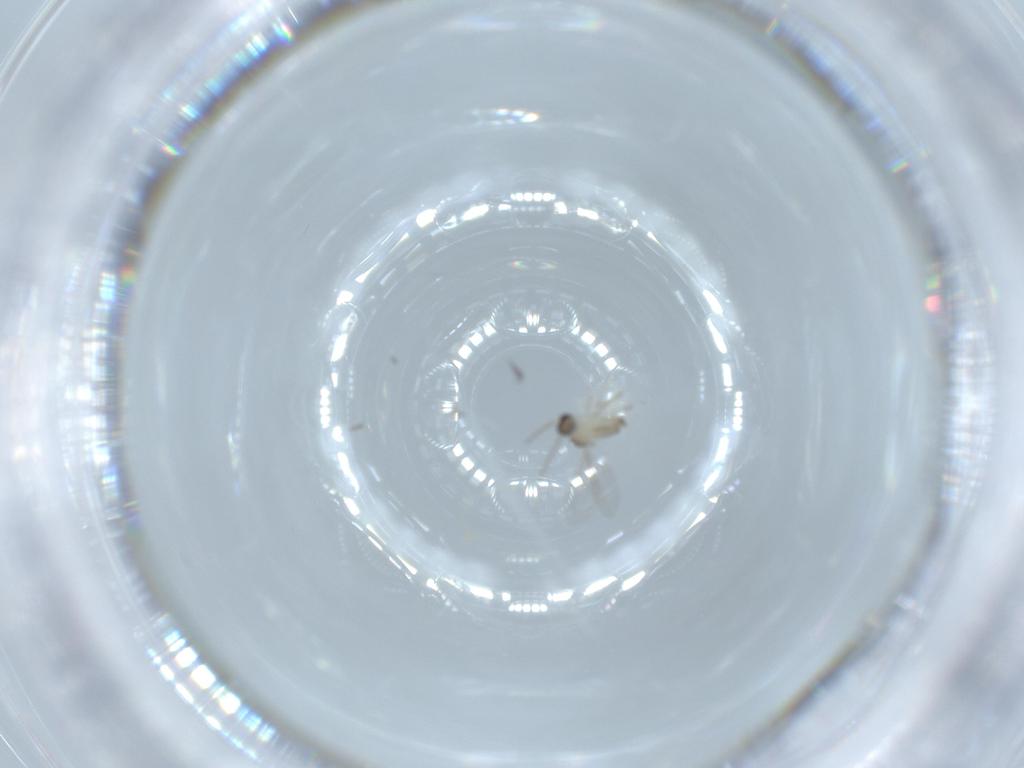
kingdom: Animalia
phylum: Arthropoda
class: Insecta
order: Diptera
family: Cecidomyiidae
